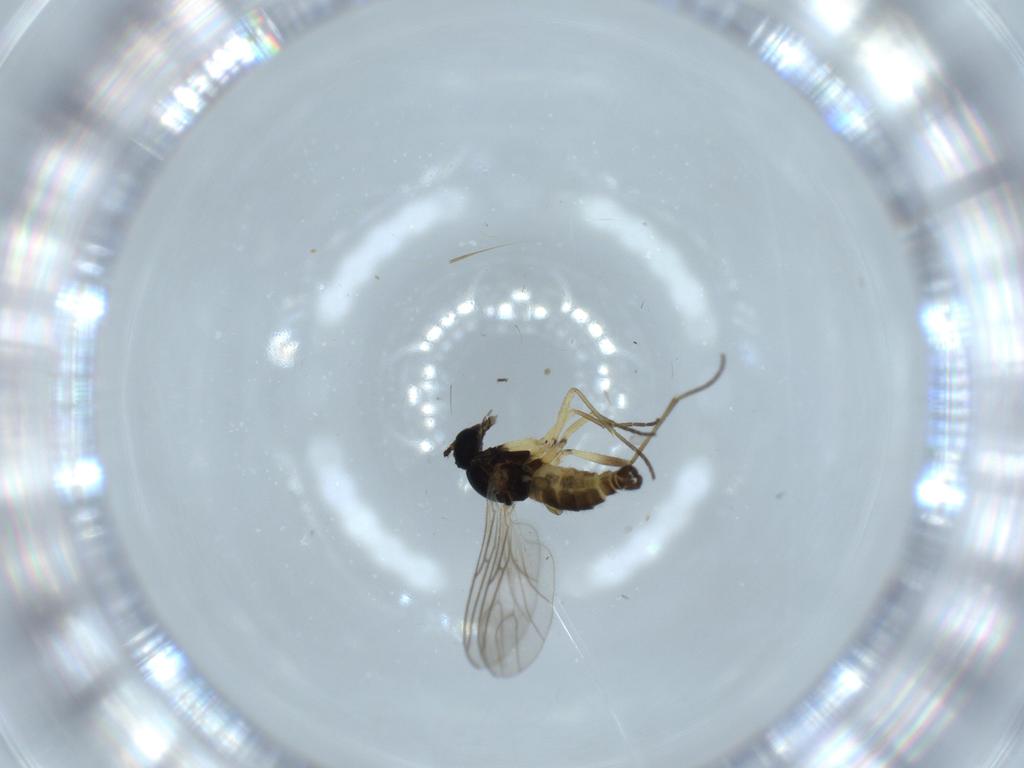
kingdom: Animalia
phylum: Arthropoda
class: Insecta
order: Diptera
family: Sciaridae
